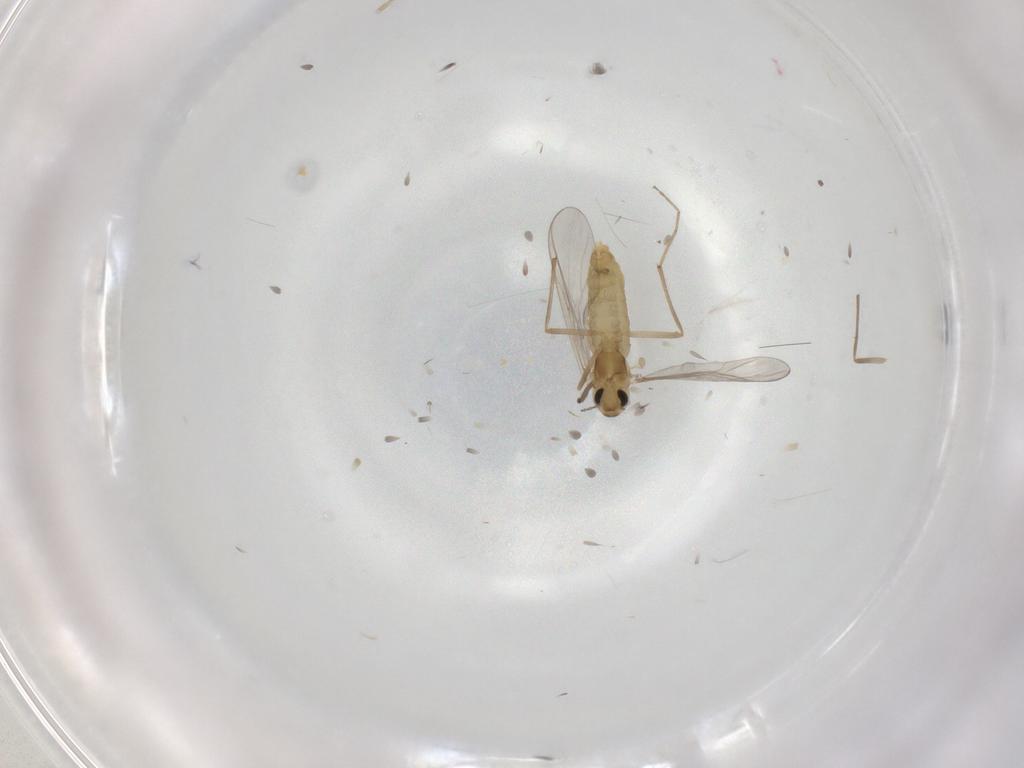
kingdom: Animalia
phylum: Arthropoda
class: Insecta
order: Diptera
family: Chironomidae
